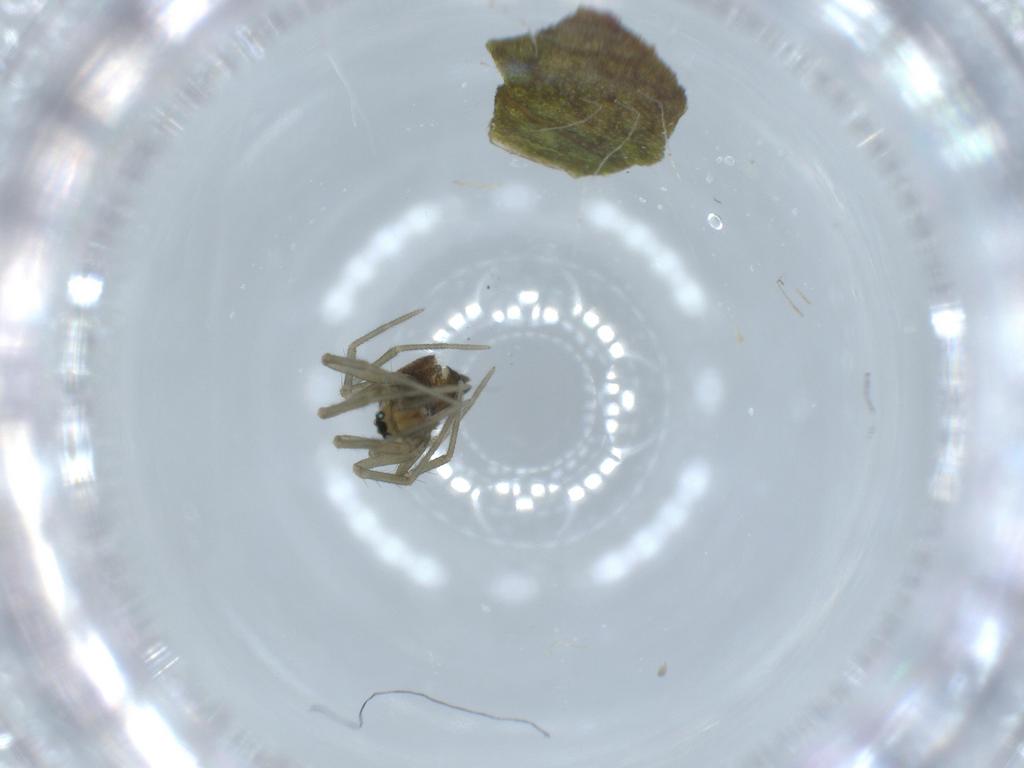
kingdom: Animalia
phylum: Arthropoda
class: Arachnida
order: Araneae
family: Linyphiidae
